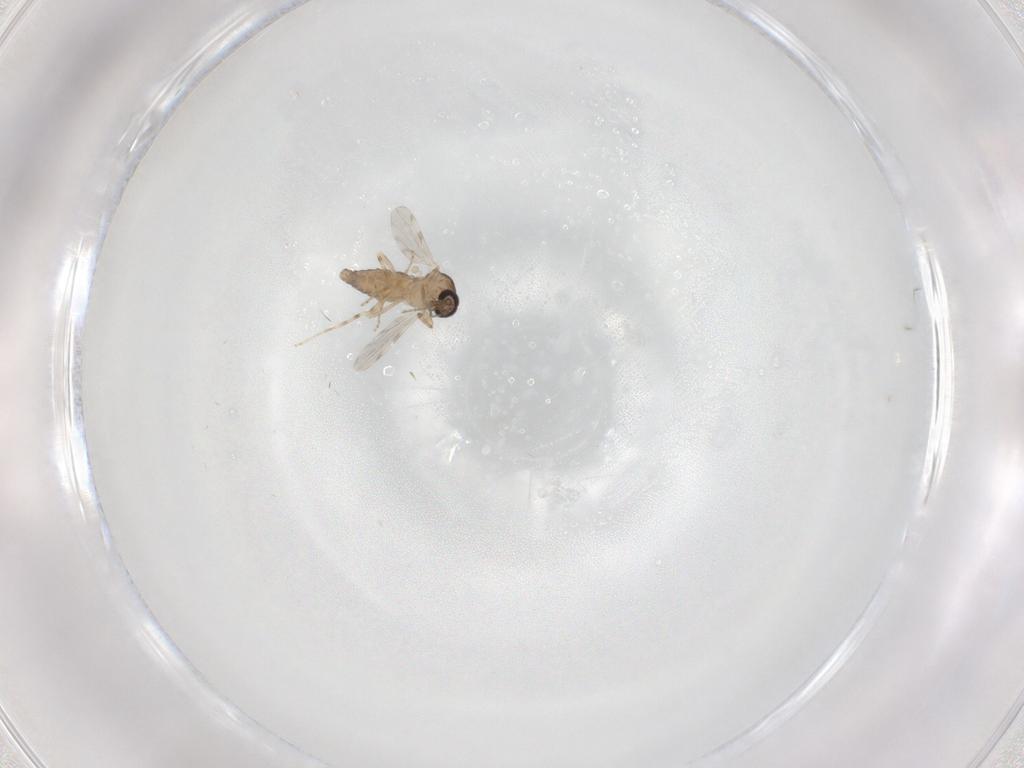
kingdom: Animalia
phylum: Arthropoda
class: Insecta
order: Diptera
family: Ceratopogonidae
